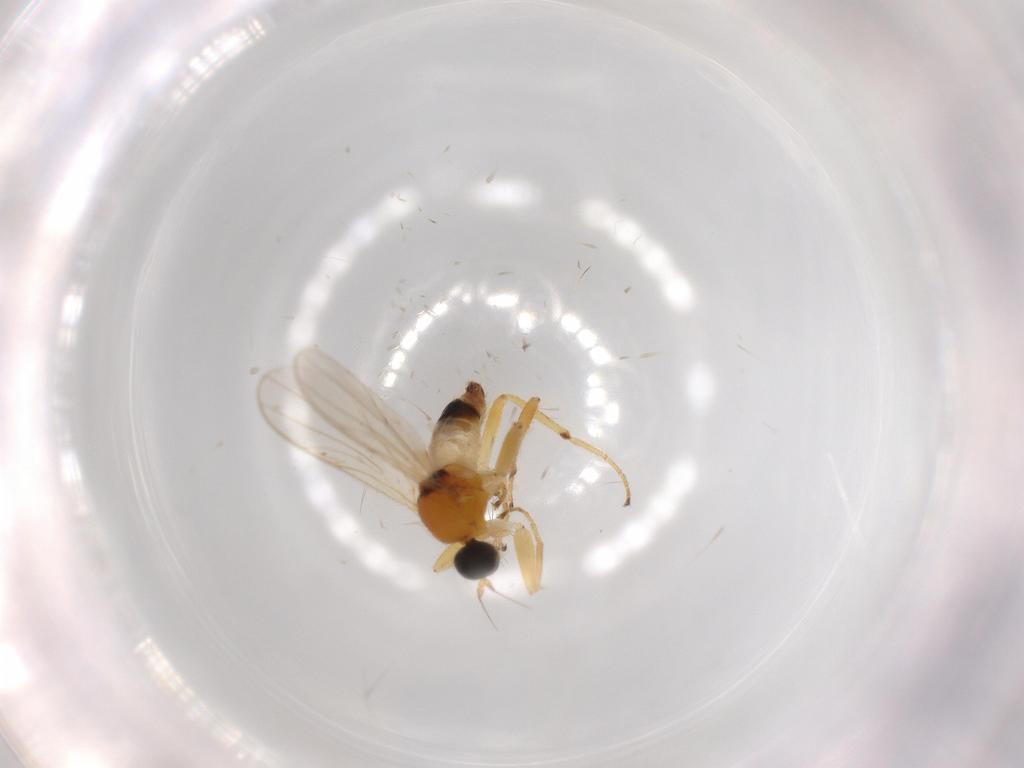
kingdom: Animalia
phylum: Arthropoda
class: Insecta
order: Diptera
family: Hybotidae
